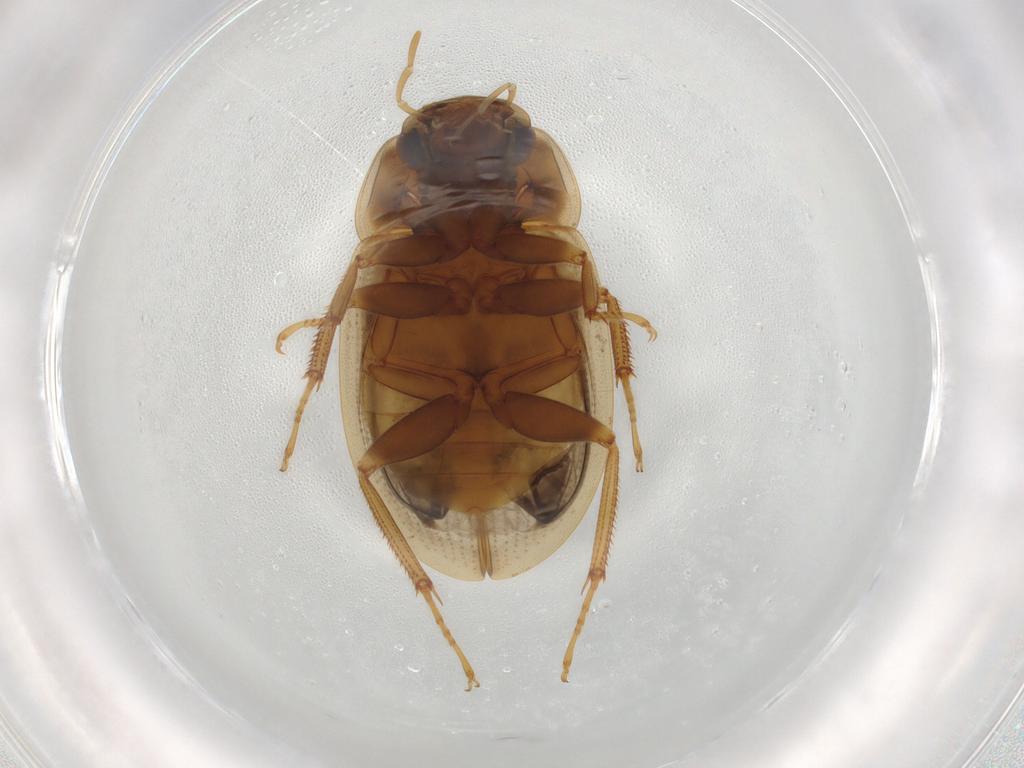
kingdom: Animalia
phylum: Arthropoda
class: Insecta
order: Coleoptera
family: Hydrophilidae
